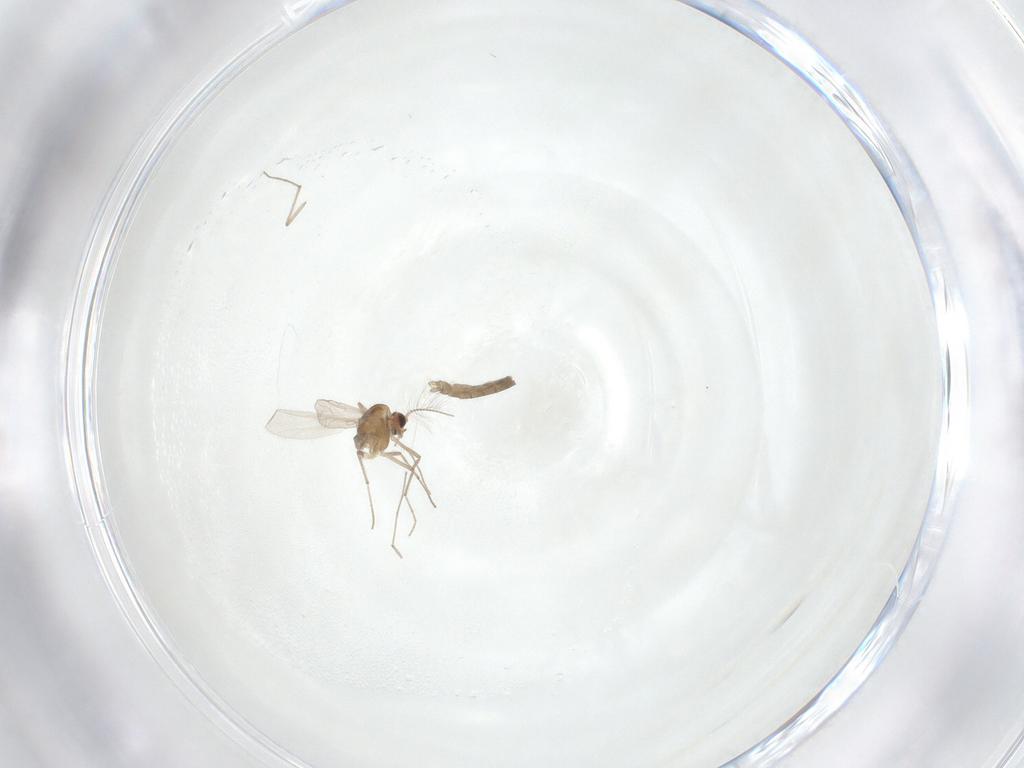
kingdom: Animalia
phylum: Arthropoda
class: Insecta
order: Diptera
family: Chironomidae
